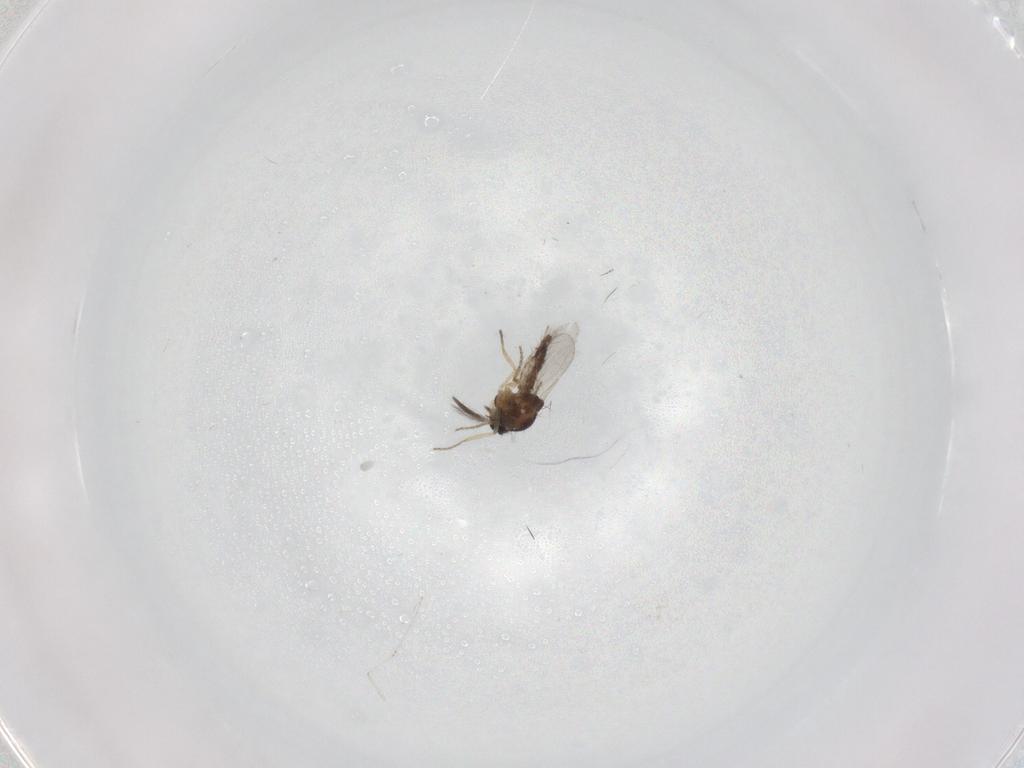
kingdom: Animalia
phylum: Arthropoda
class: Insecta
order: Diptera
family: Ceratopogonidae
